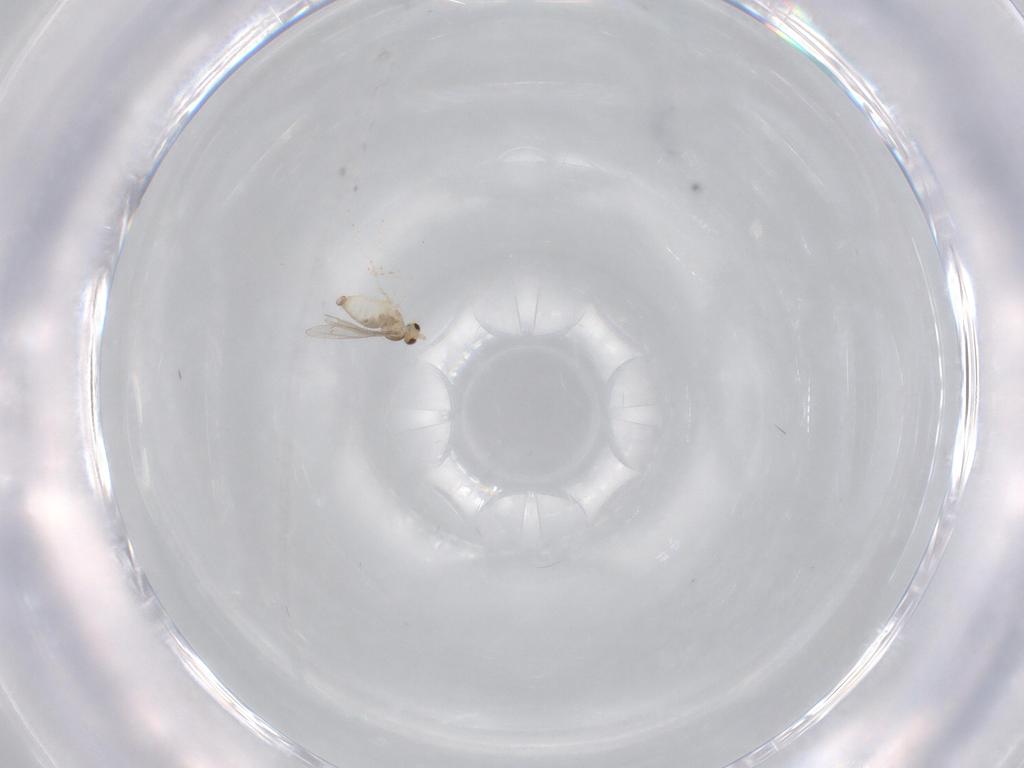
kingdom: Animalia
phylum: Arthropoda
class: Insecta
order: Diptera
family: Cecidomyiidae
